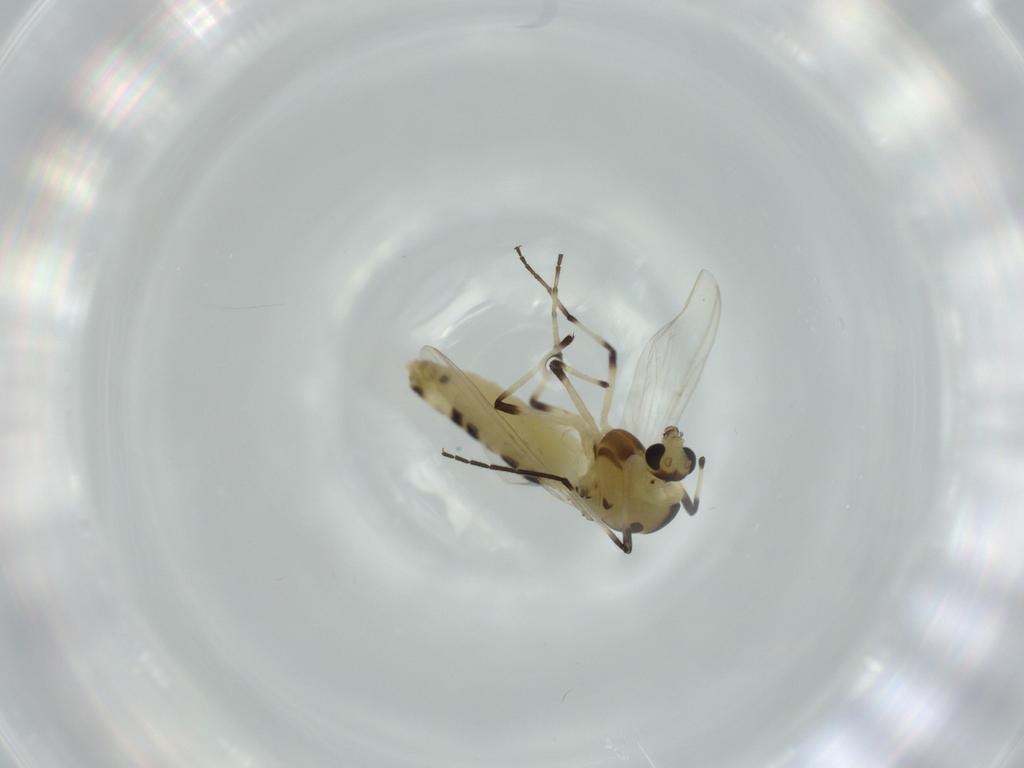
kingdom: Animalia
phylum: Arthropoda
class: Insecta
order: Diptera
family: Chironomidae
